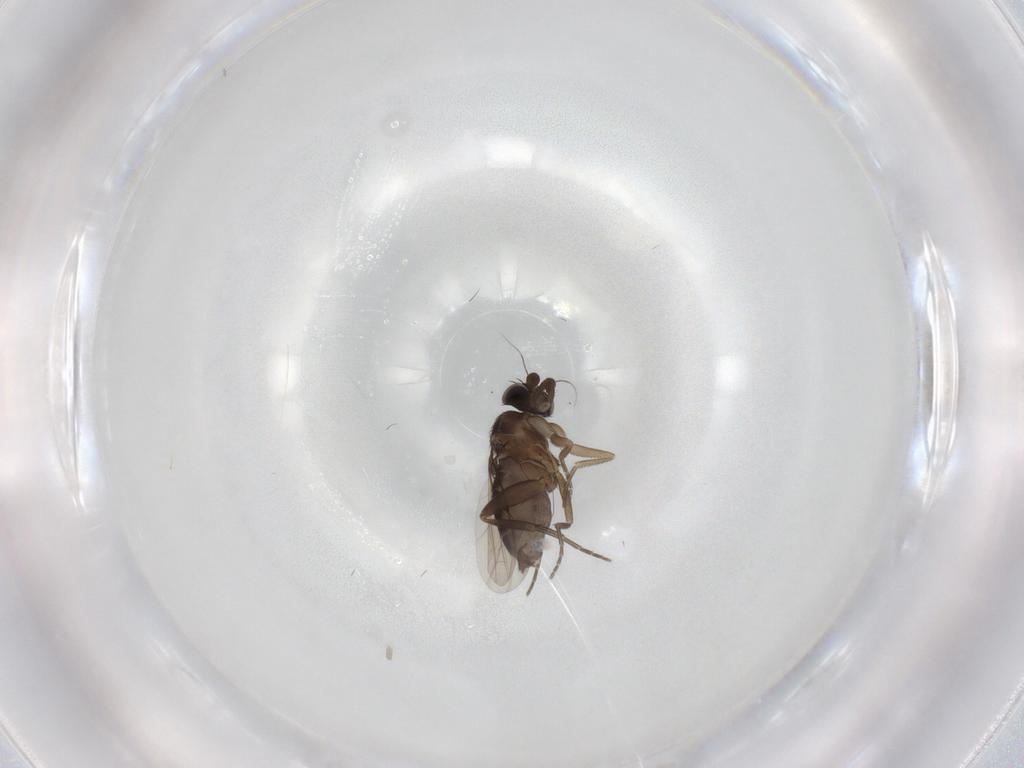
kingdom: Animalia
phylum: Arthropoda
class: Insecta
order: Diptera
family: Phoridae
